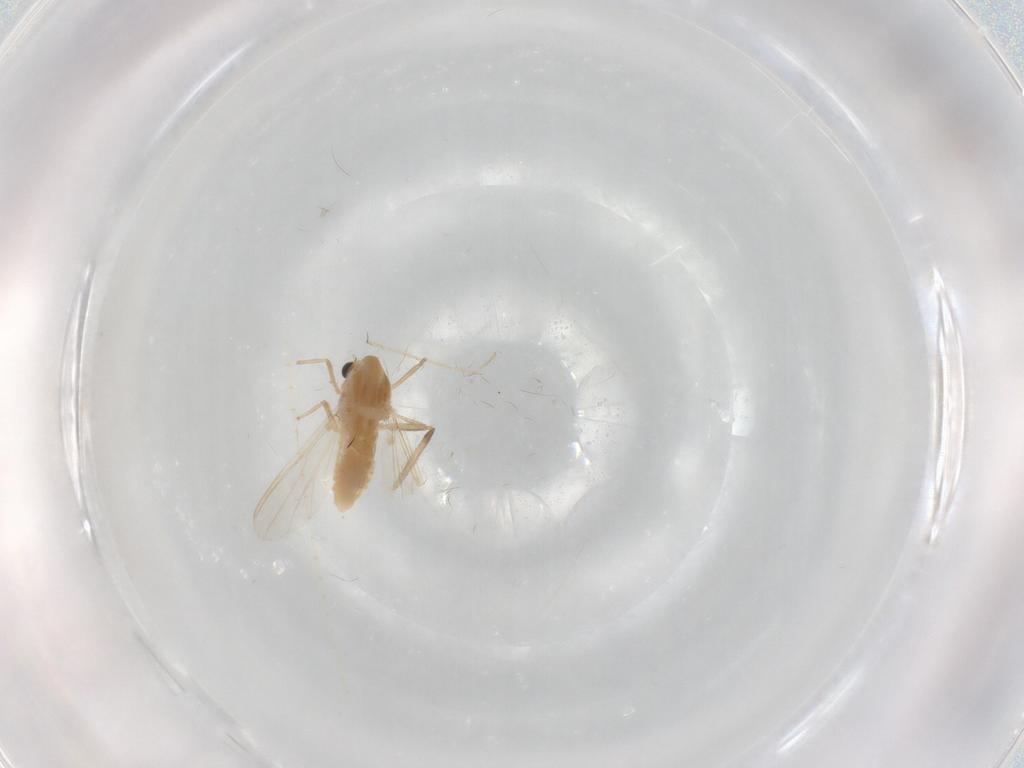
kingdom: Animalia
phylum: Arthropoda
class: Insecta
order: Diptera
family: Chironomidae
